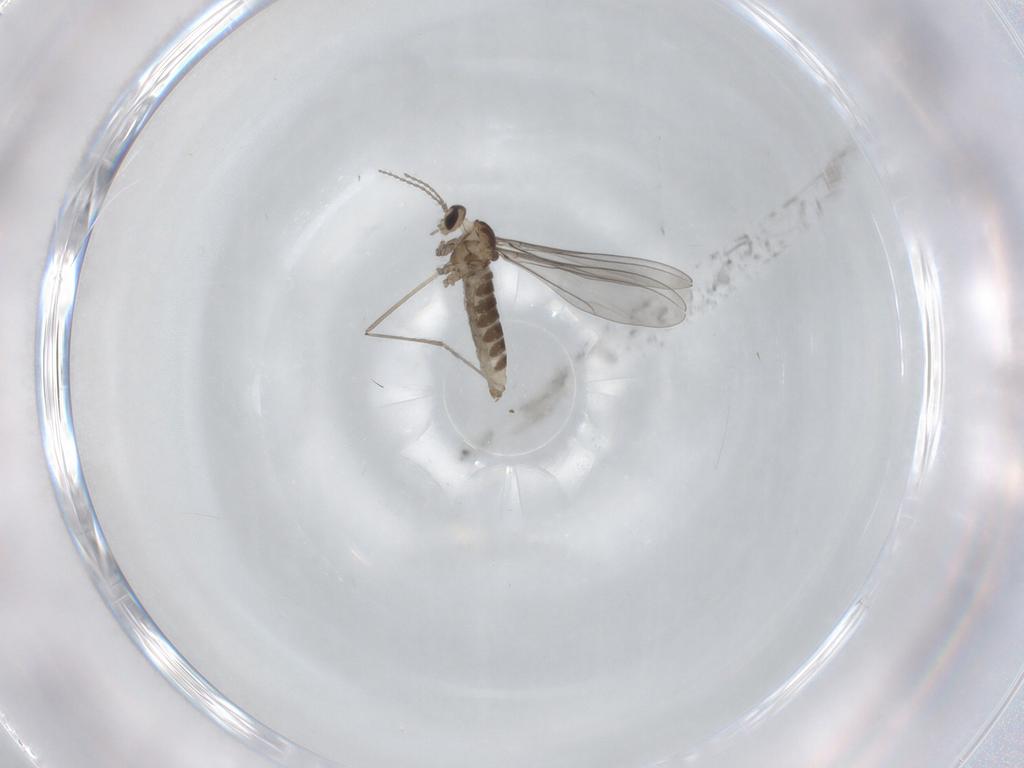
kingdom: Animalia
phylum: Arthropoda
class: Insecta
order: Diptera
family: Cecidomyiidae
